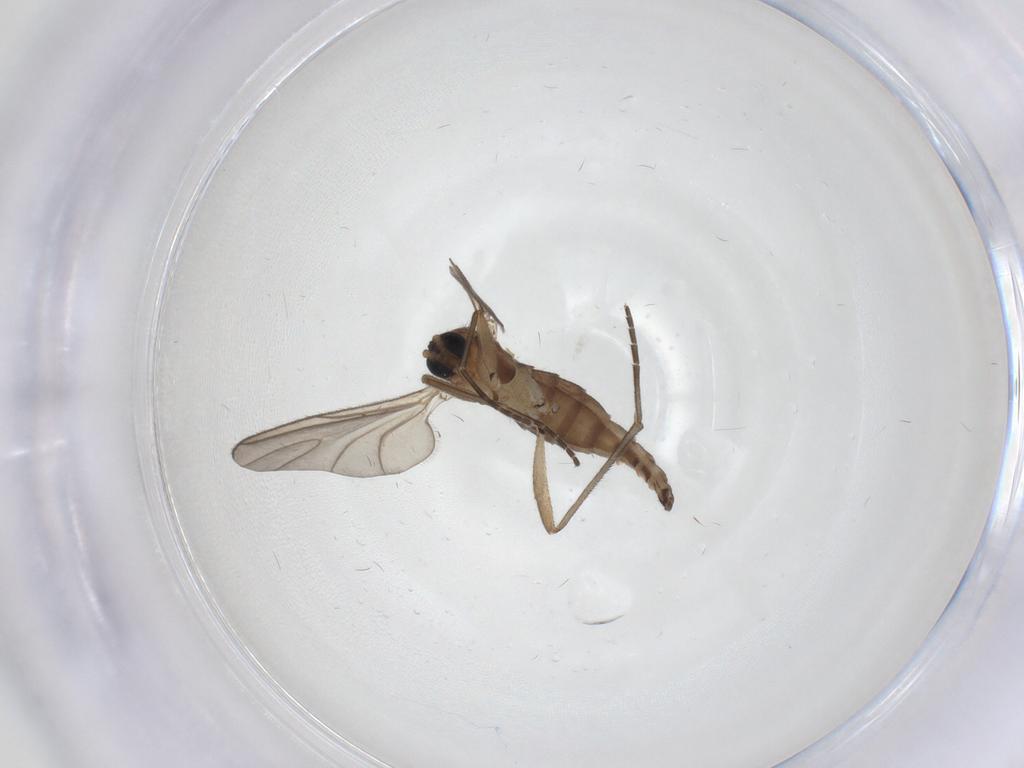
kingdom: Animalia
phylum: Arthropoda
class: Insecta
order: Diptera
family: Sciaridae
